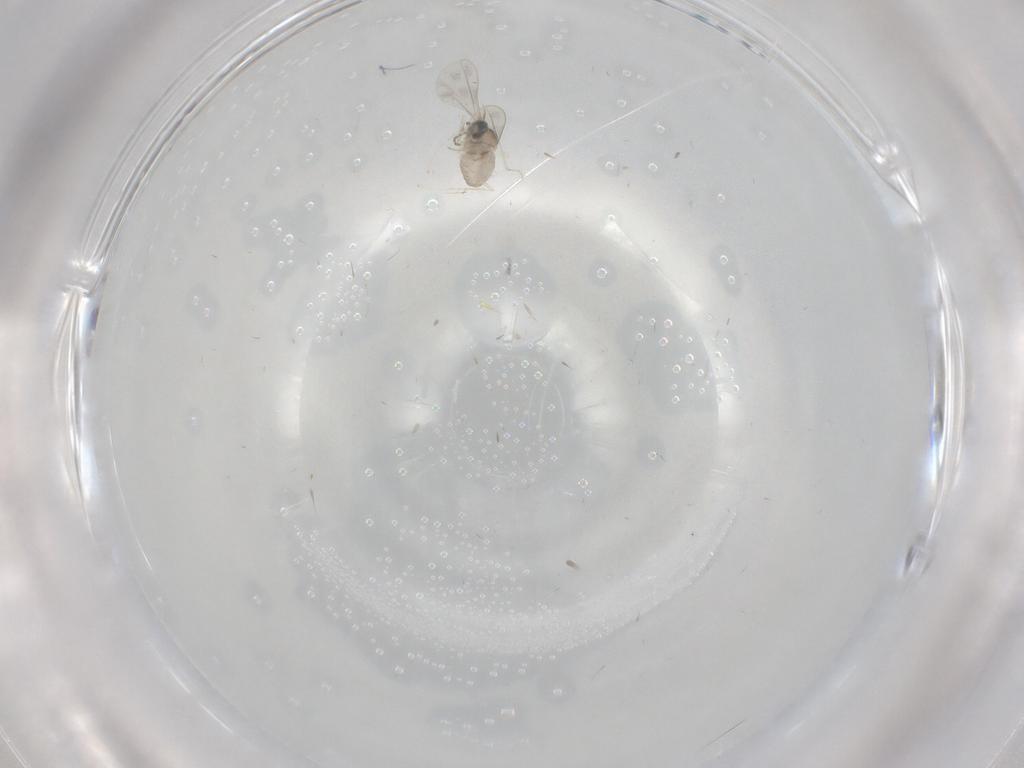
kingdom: Animalia
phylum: Arthropoda
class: Insecta
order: Diptera
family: Cecidomyiidae
